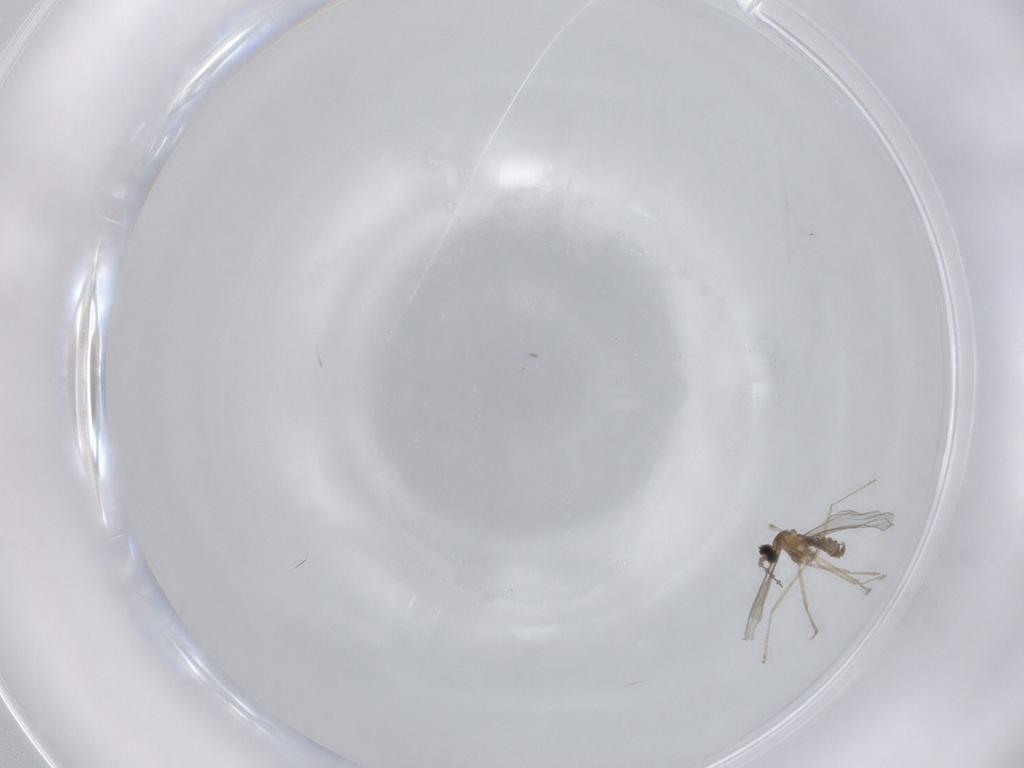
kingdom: Animalia
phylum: Arthropoda
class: Insecta
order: Diptera
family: Cecidomyiidae
